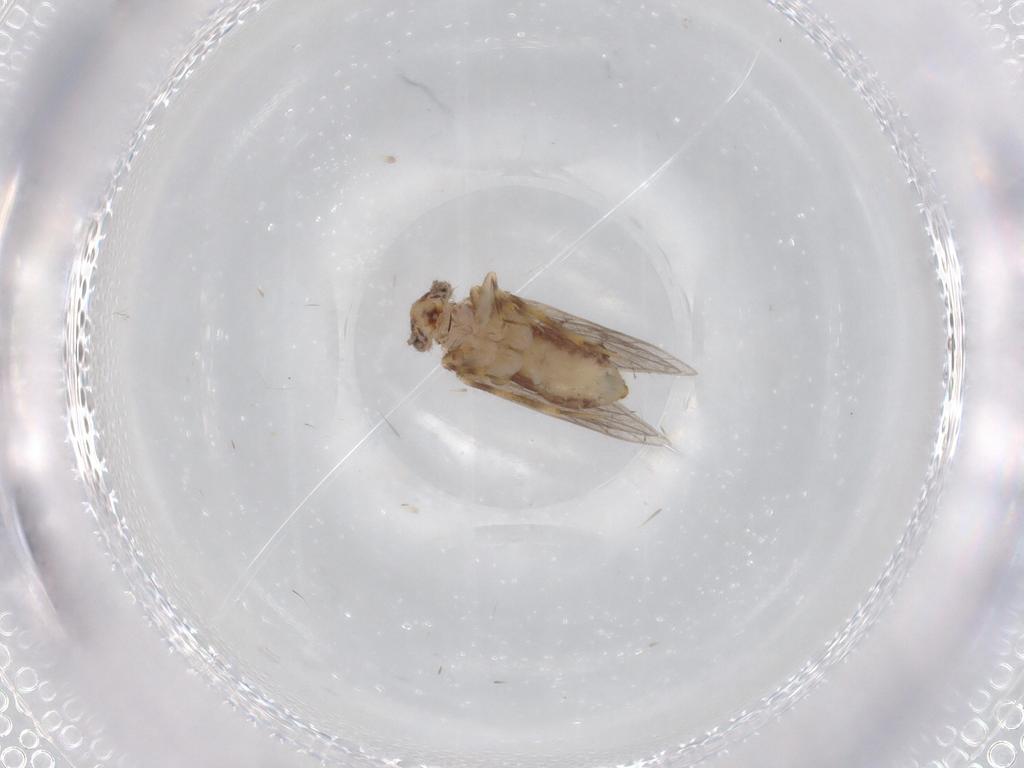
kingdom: Animalia
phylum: Arthropoda
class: Insecta
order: Psocodea
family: Lepidopsocidae
